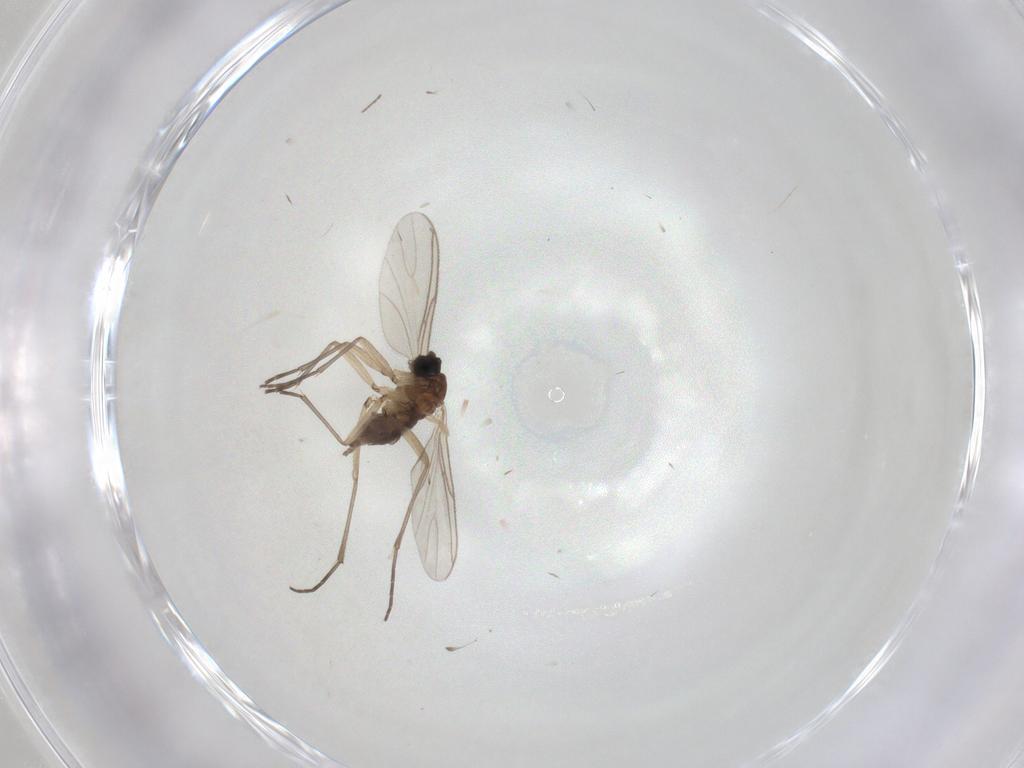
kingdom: Animalia
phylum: Arthropoda
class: Insecta
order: Diptera
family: Sciaridae
